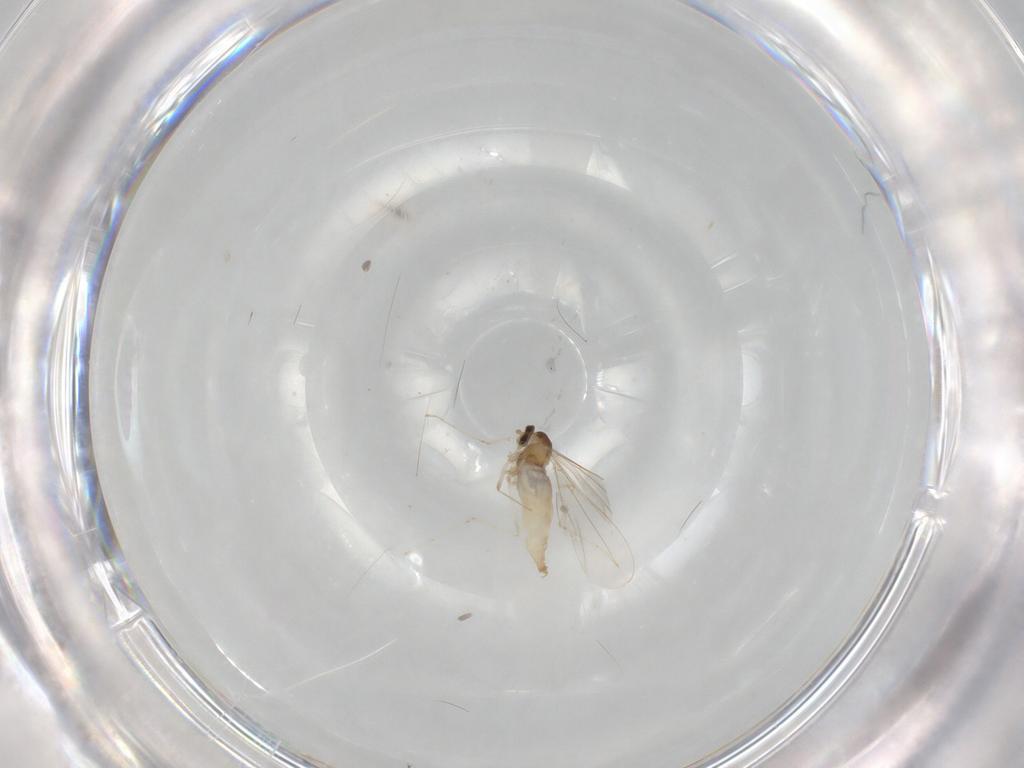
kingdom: Animalia
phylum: Arthropoda
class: Insecta
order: Diptera
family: Cecidomyiidae
